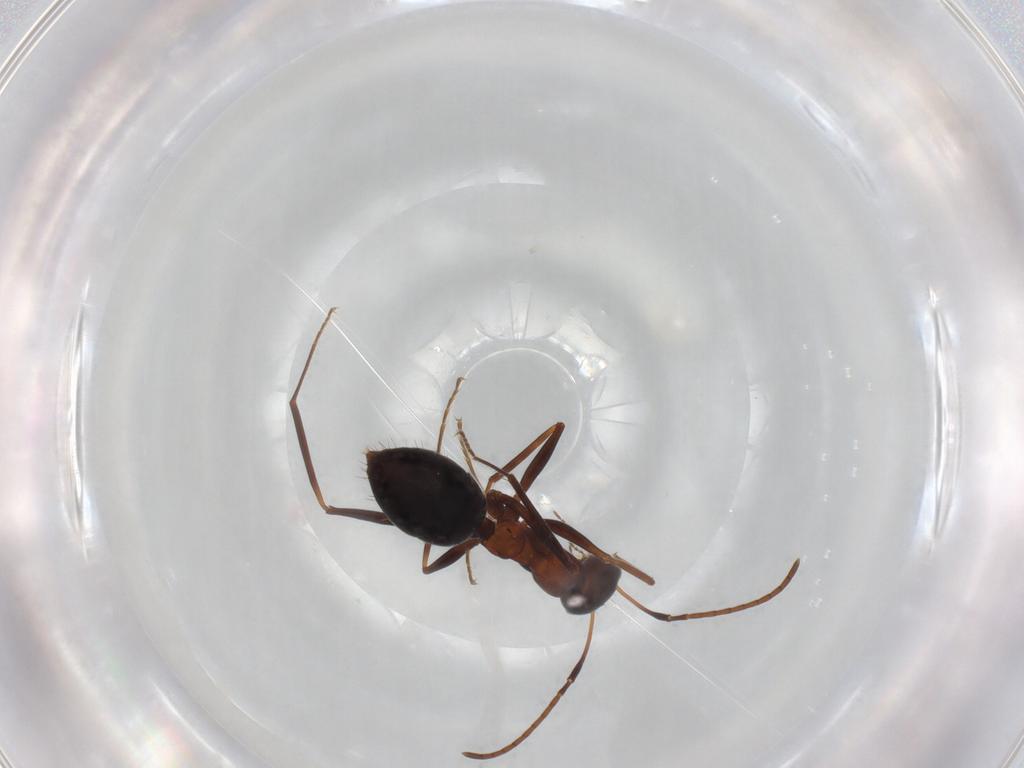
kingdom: Animalia
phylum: Arthropoda
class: Insecta
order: Hymenoptera
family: Formicidae
